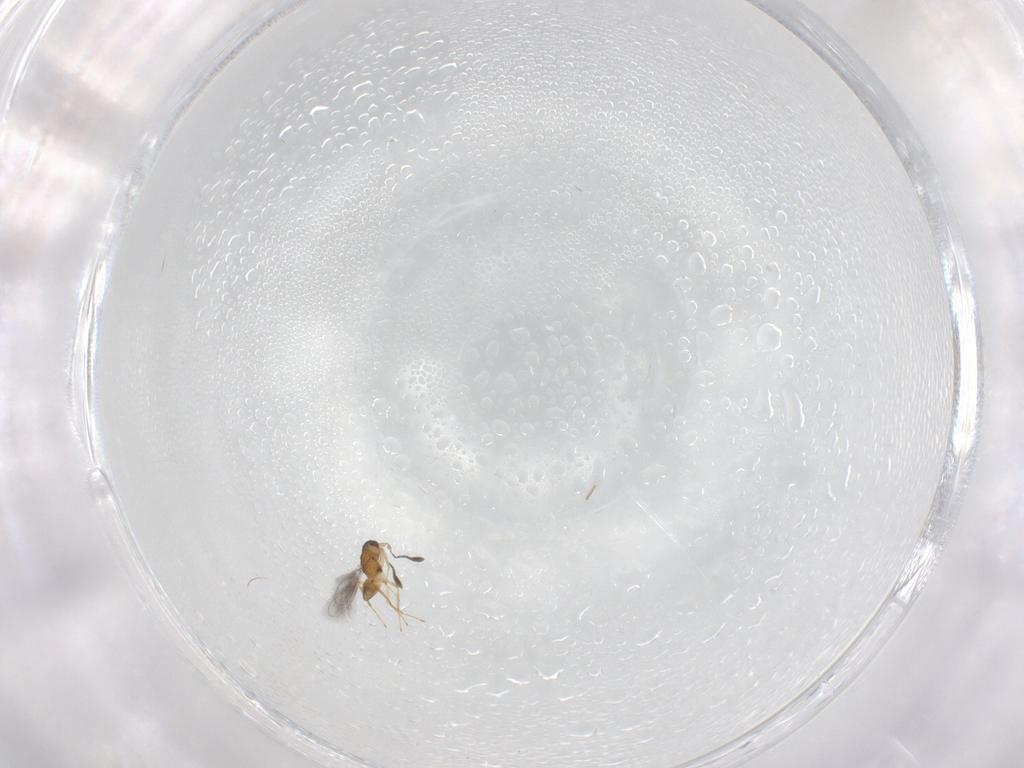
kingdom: Animalia
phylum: Arthropoda
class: Insecta
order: Hymenoptera
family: Mymaridae
